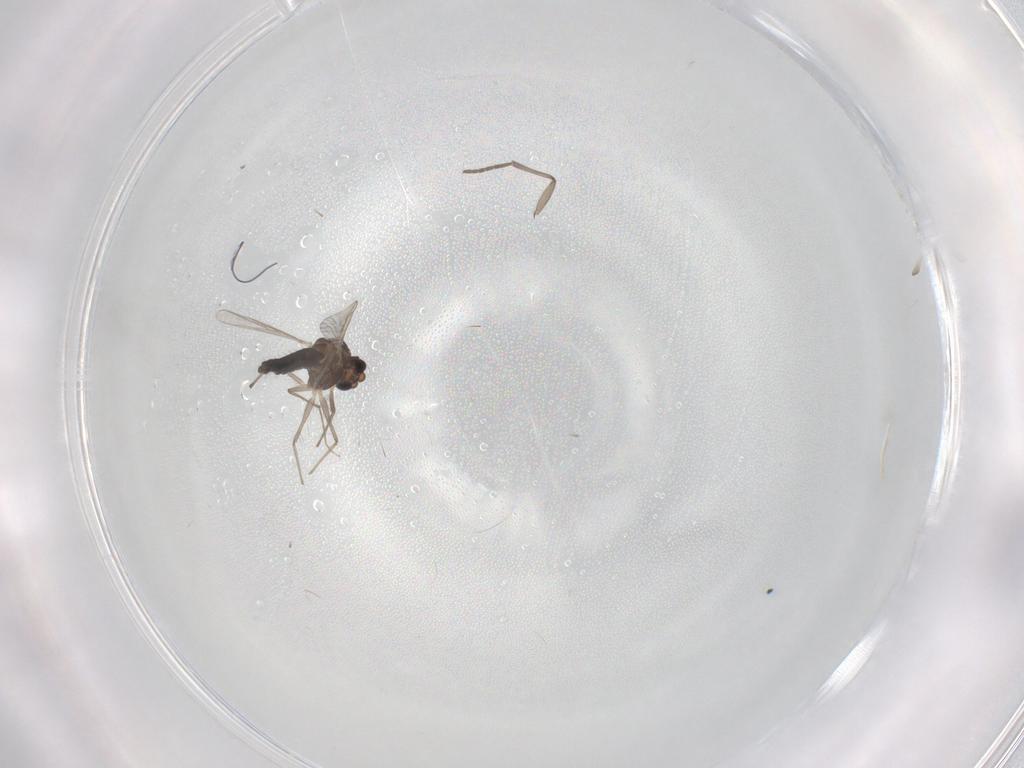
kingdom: Animalia
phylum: Arthropoda
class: Insecta
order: Diptera
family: Chironomidae
